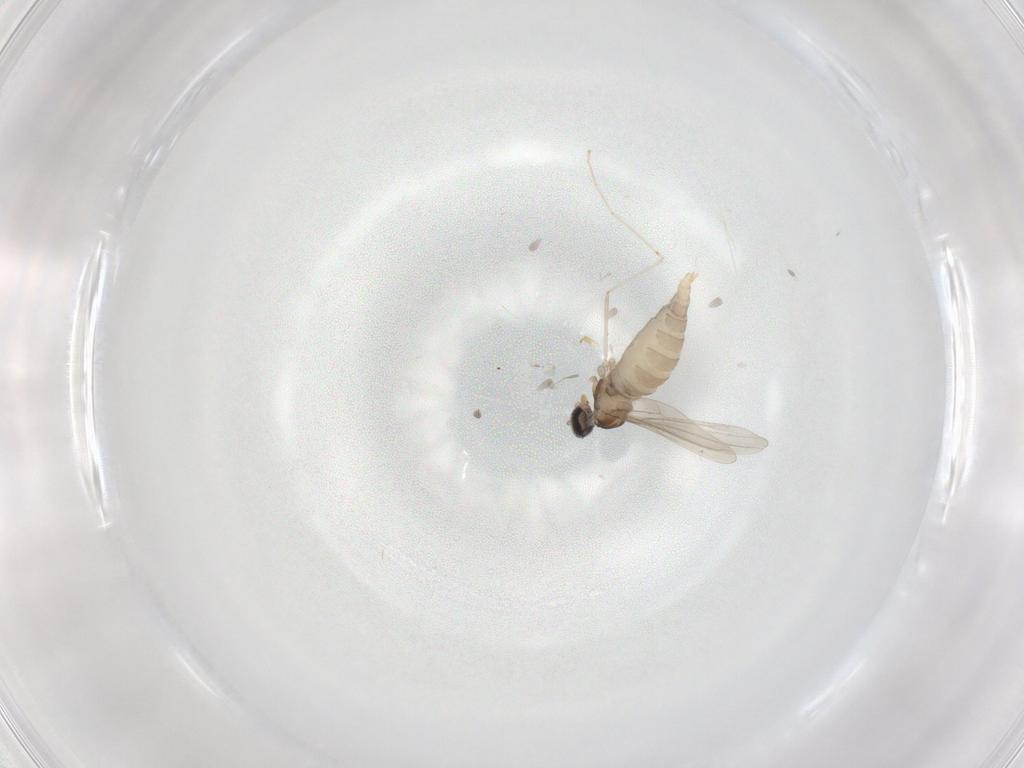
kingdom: Animalia
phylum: Arthropoda
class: Insecta
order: Diptera
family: Cecidomyiidae
